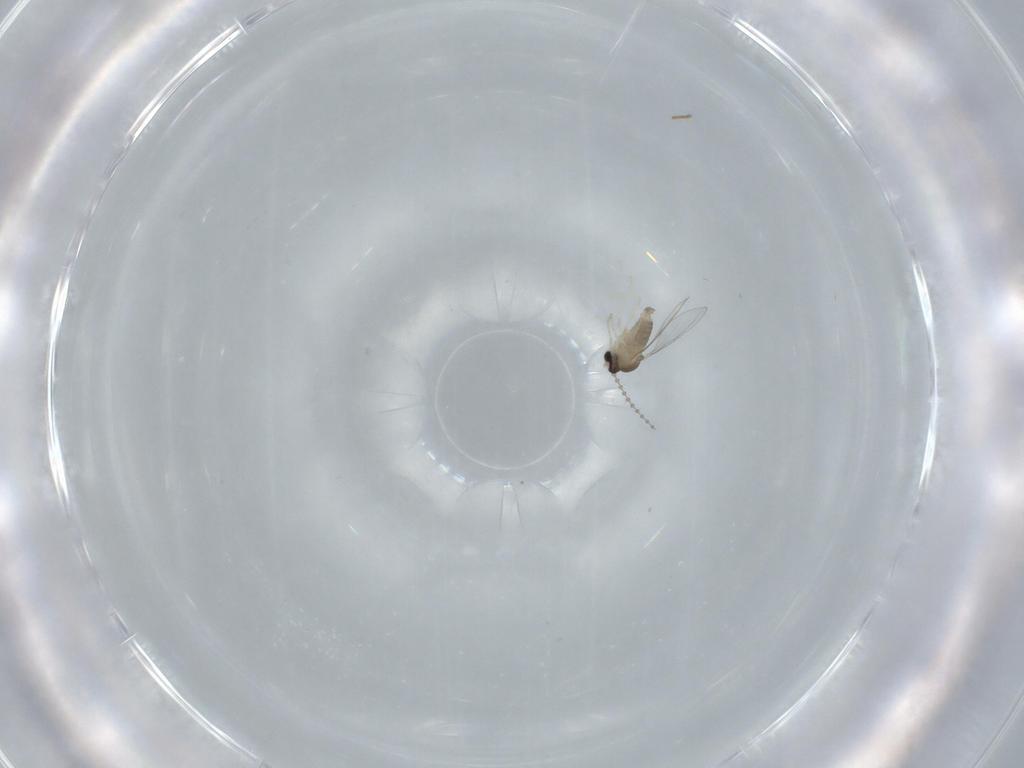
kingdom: Animalia
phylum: Arthropoda
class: Insecta
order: Diptera
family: Cecidomyiidae
